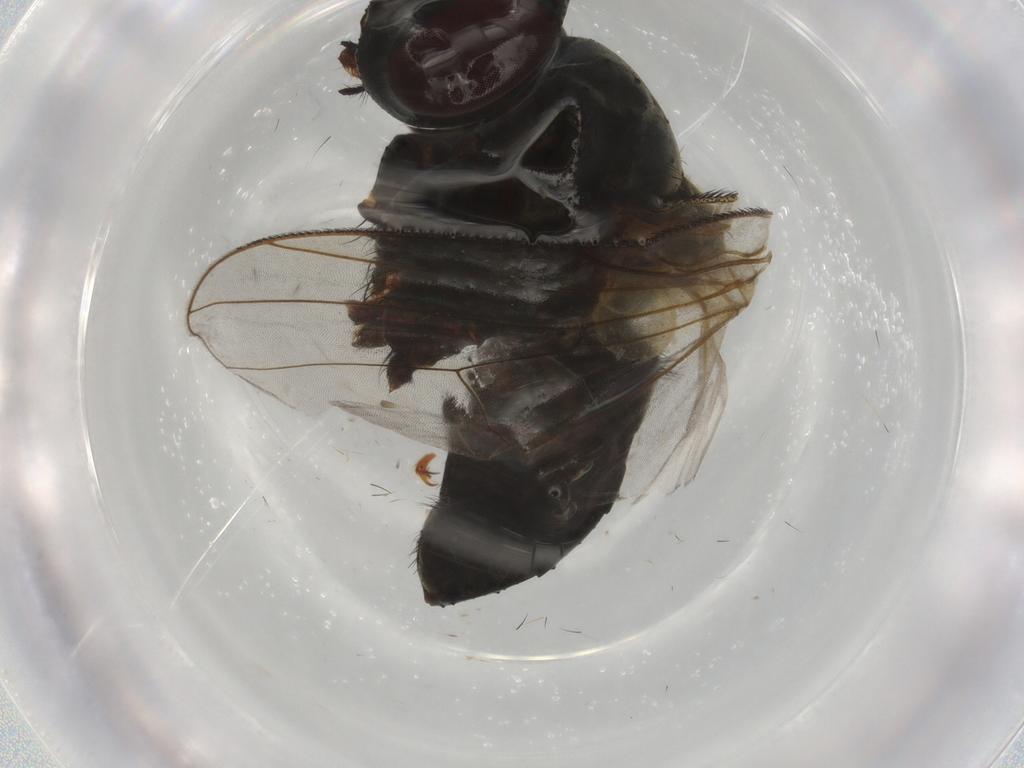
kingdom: Animalia
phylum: Arthropoda
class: Insecta
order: Diptera
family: Muscidae
